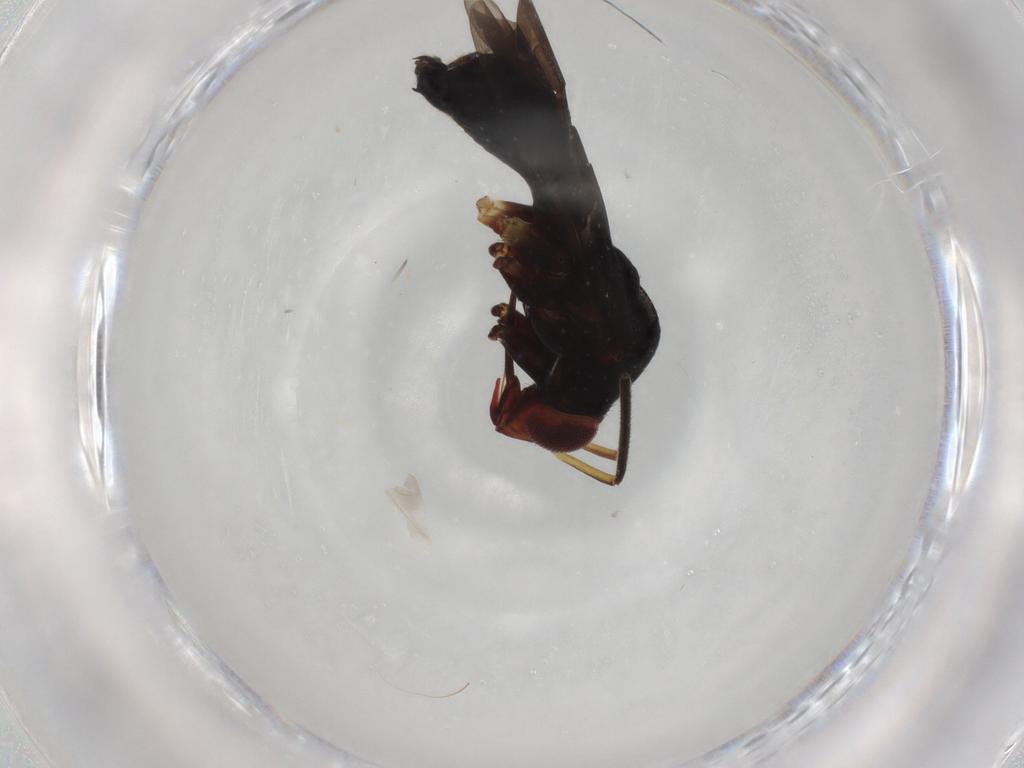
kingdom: Animalia
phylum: Arthropoda
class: Insecta
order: Hemiptera
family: Miridae
